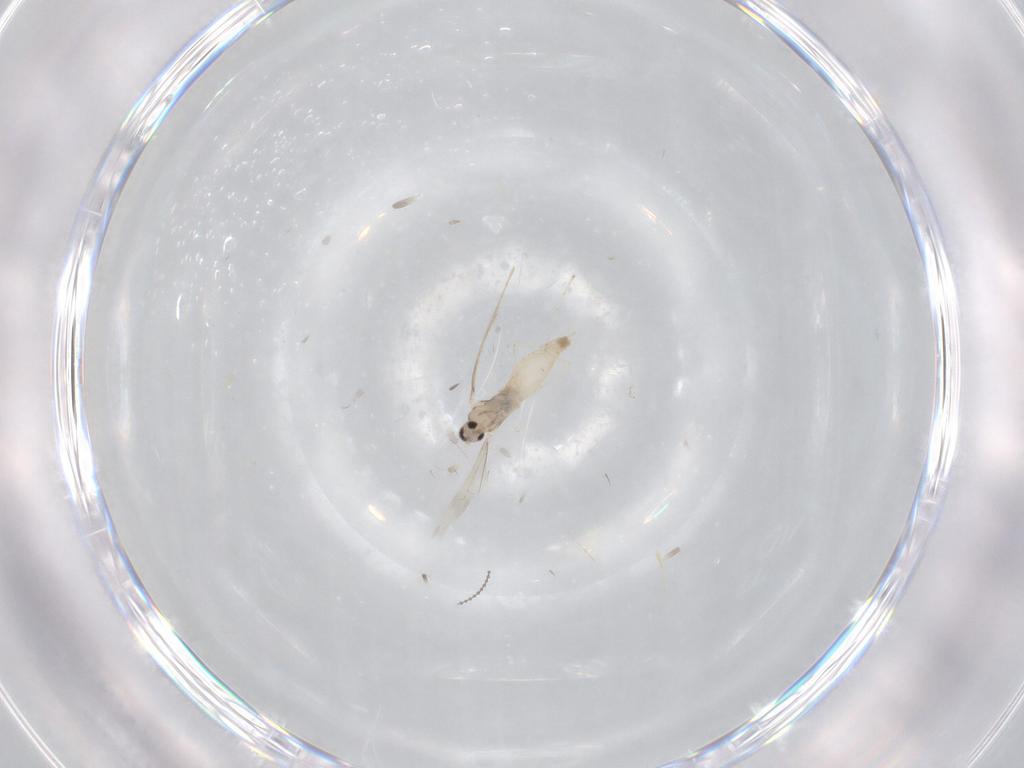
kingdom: Animalia
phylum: Arthropoda
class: Insecta
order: Diptera
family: Cecidomyiidae
